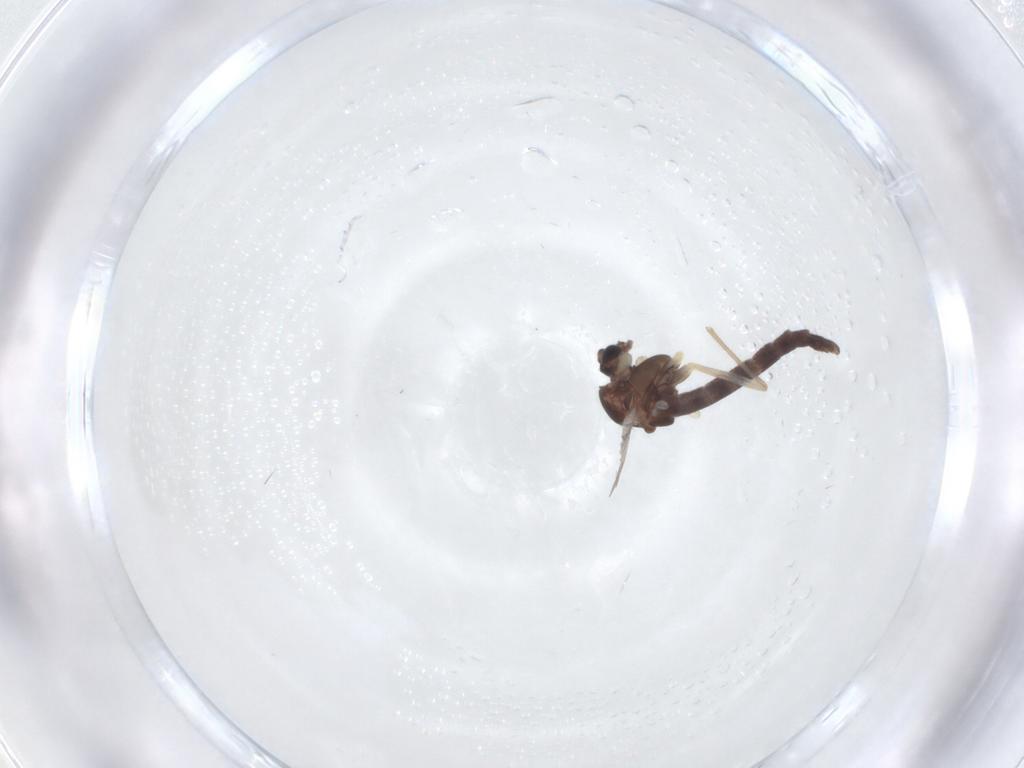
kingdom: Animalia
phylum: Arthropoda
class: Insecta
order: Diptera
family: Chironomidae
